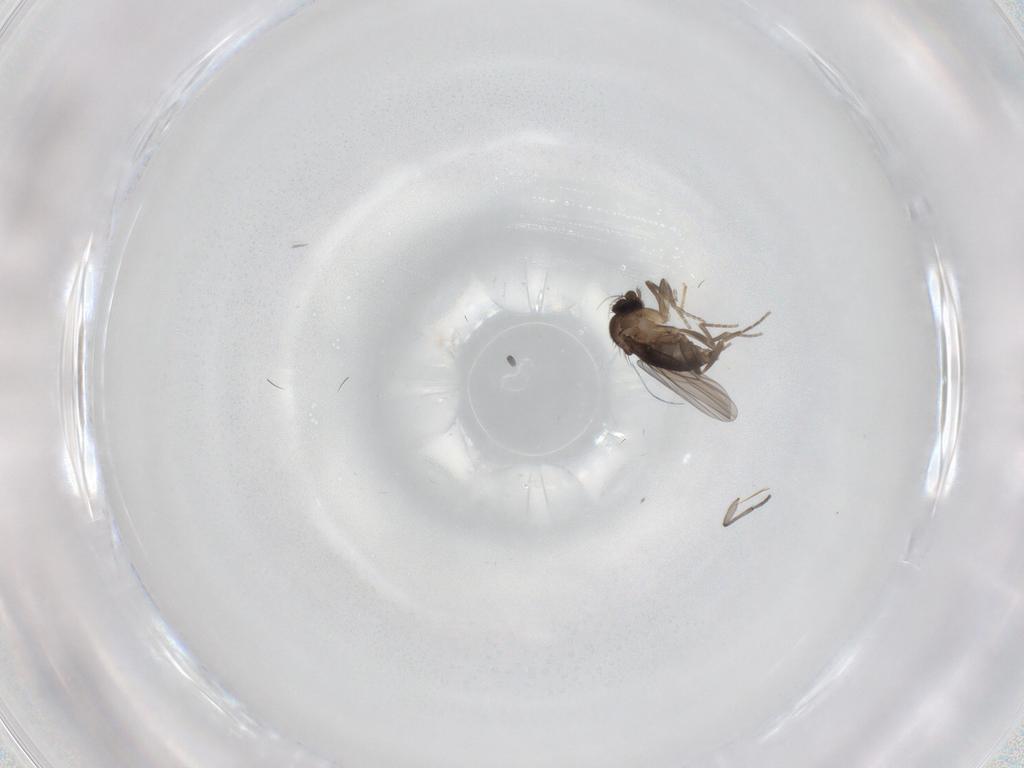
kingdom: Animalia
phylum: Arthropoda
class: Insecta
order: Diptera
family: Sciaridae
